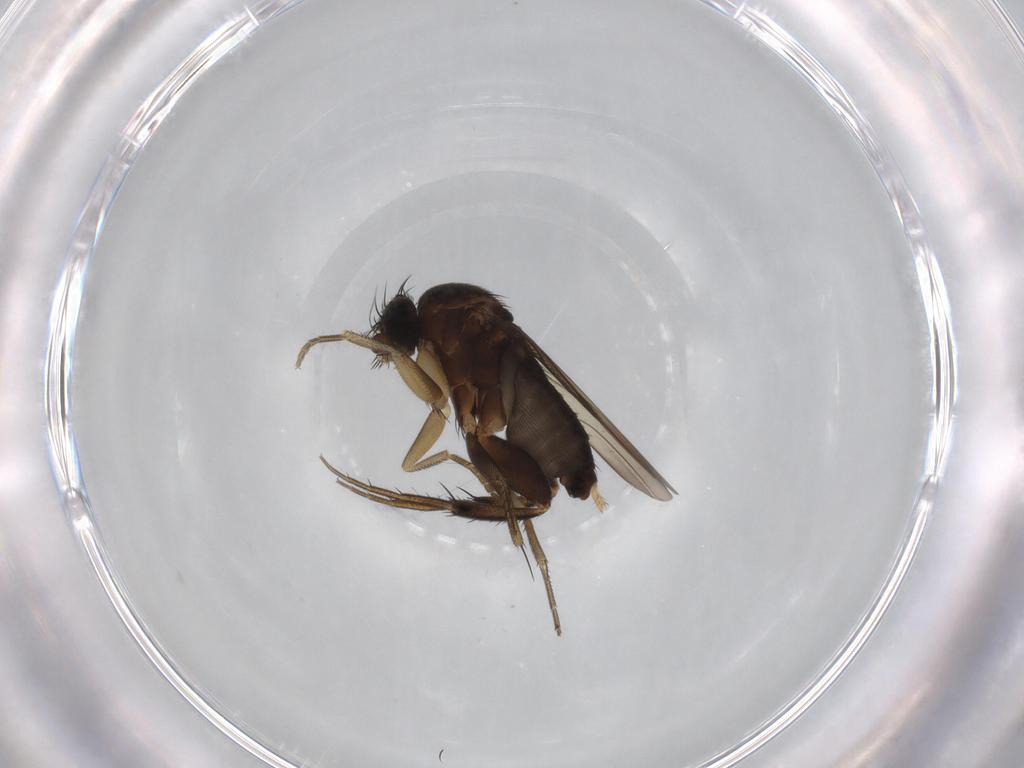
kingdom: Animalia
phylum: Arthropoda
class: Insecta
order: Diptera
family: Phoridae
